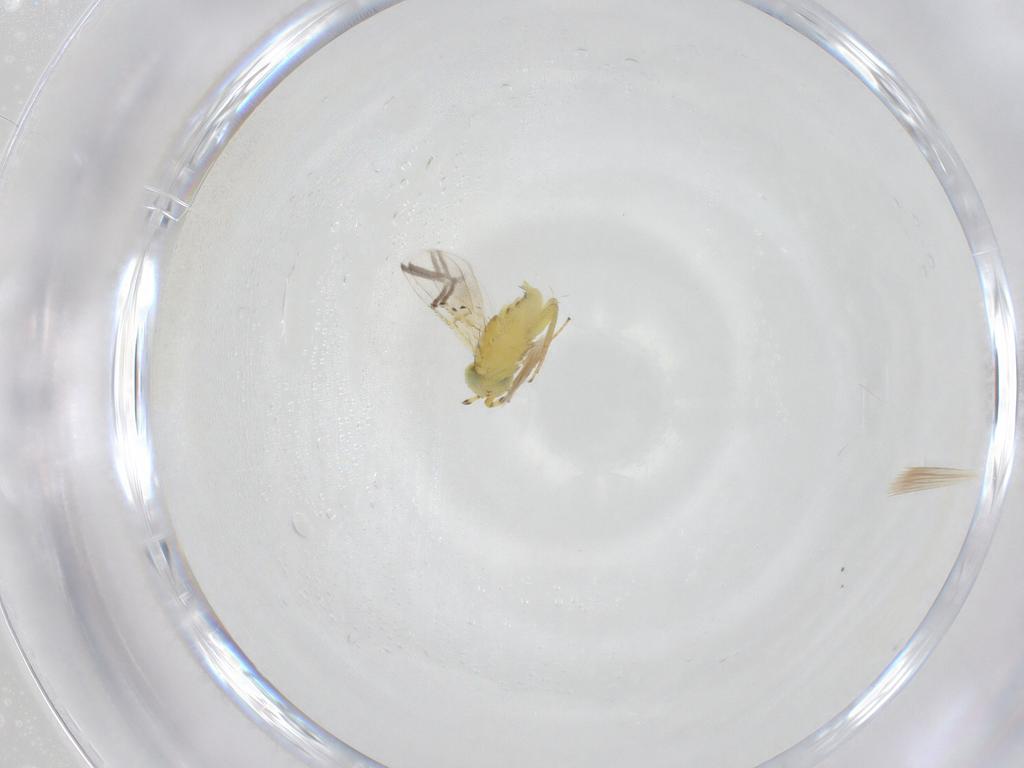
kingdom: Animalia
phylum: Arthropoda
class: Insecta
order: Hymenoptera
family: Aphelinidae
